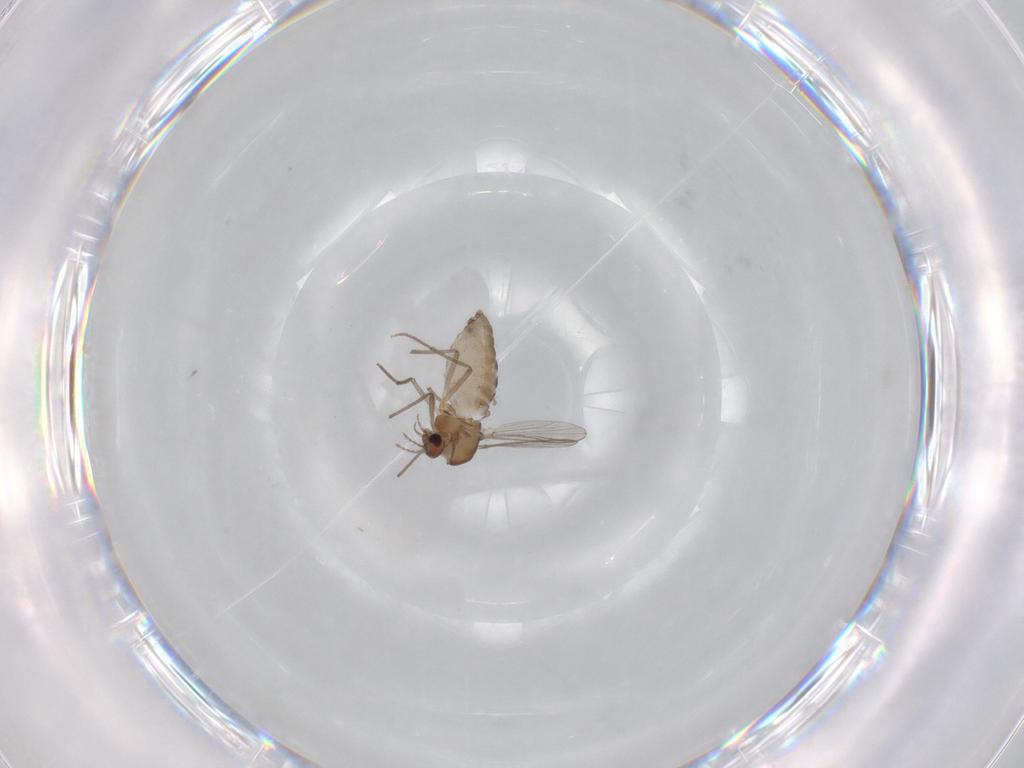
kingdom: Animalia
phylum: Arthropoda
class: Insecta
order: Diptera
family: Chironomidae
